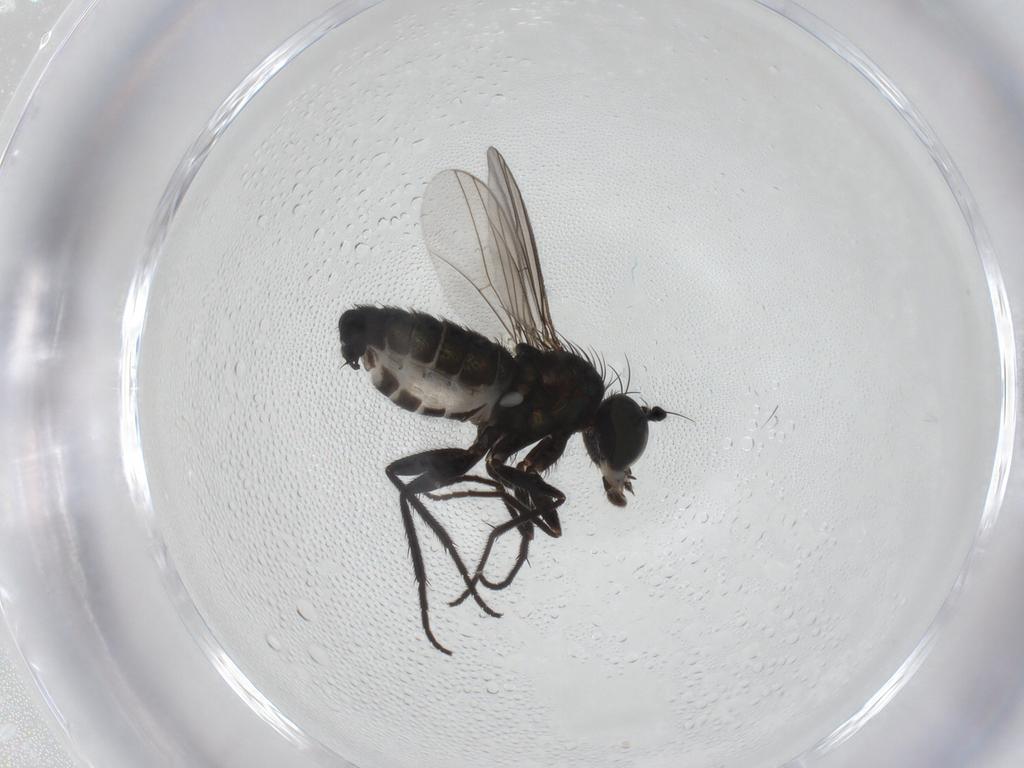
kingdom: Animalia
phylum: Arthropoda
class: Insecta
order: Diptera
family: Dolichopodidae
